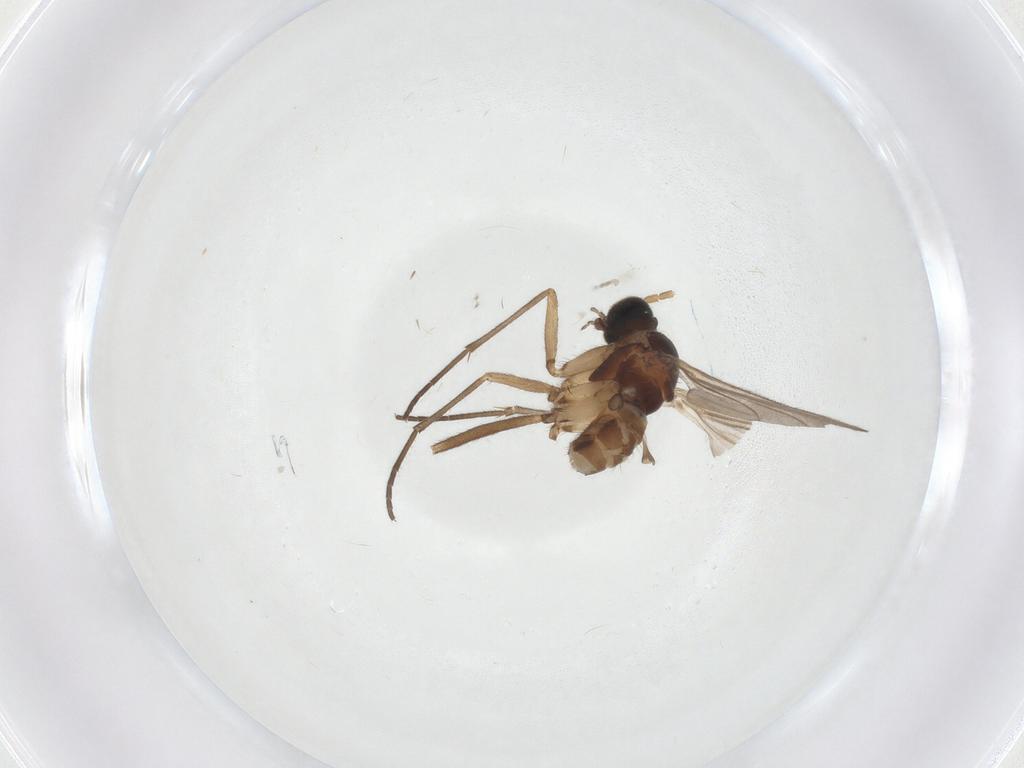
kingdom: Animalia
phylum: Arthropoda
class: Insecta
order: Diptera
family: Sciaridae
